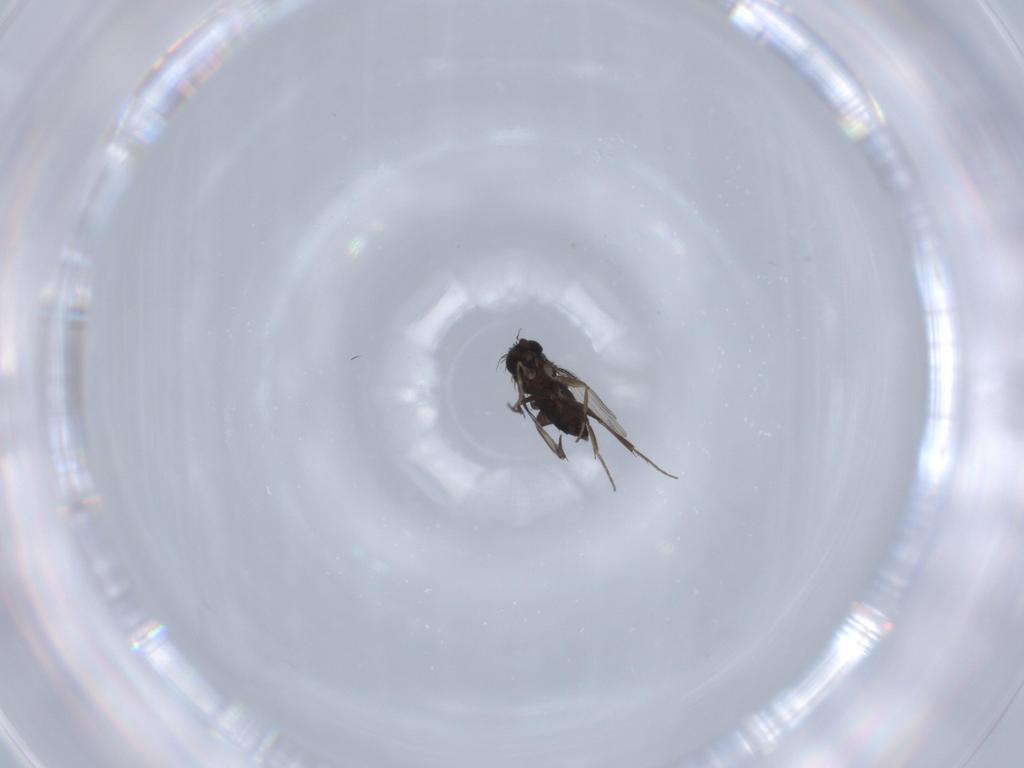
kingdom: Animalia
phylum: Arthropoda
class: Insecta
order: Diptera
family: Phoridae
